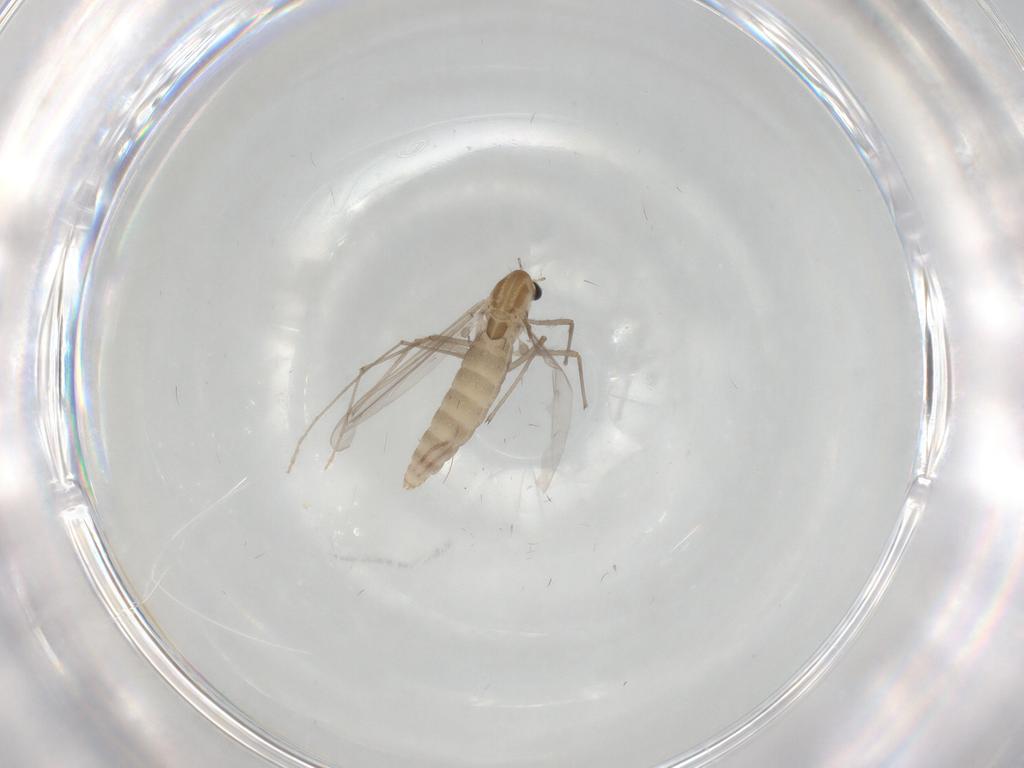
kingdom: Animalia
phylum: Arthropoda
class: Insecta
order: Diptera
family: Chironomidae
